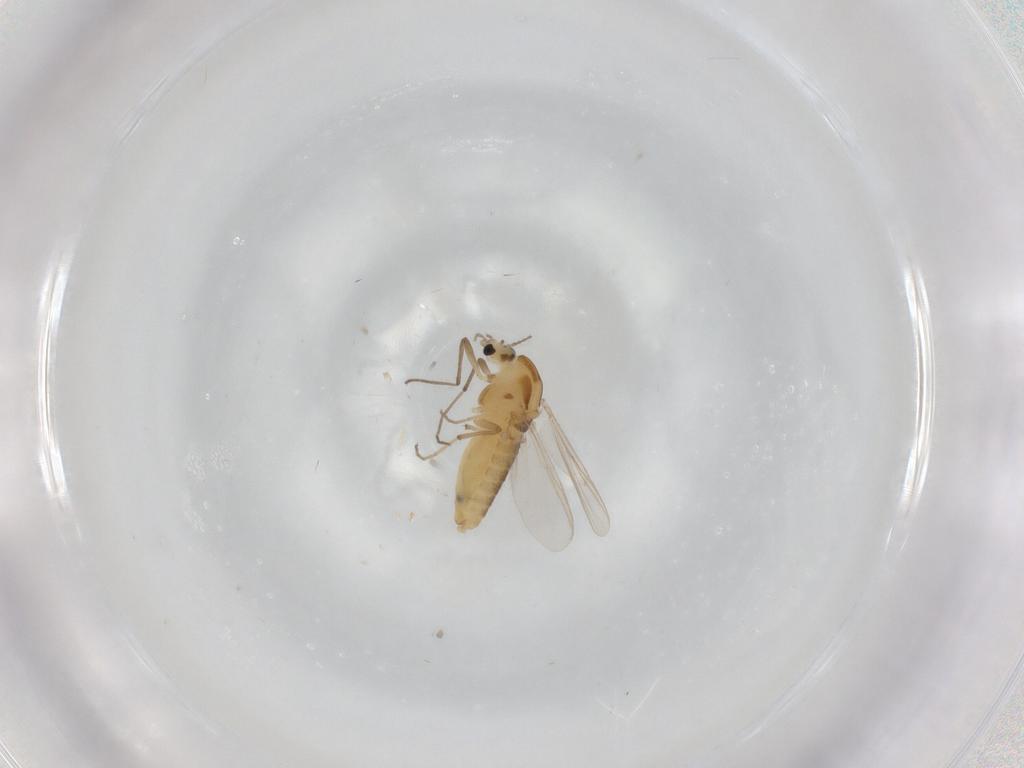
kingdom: Animalia
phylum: Arthropoda
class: Insecta
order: Diptera
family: Chironomidae
